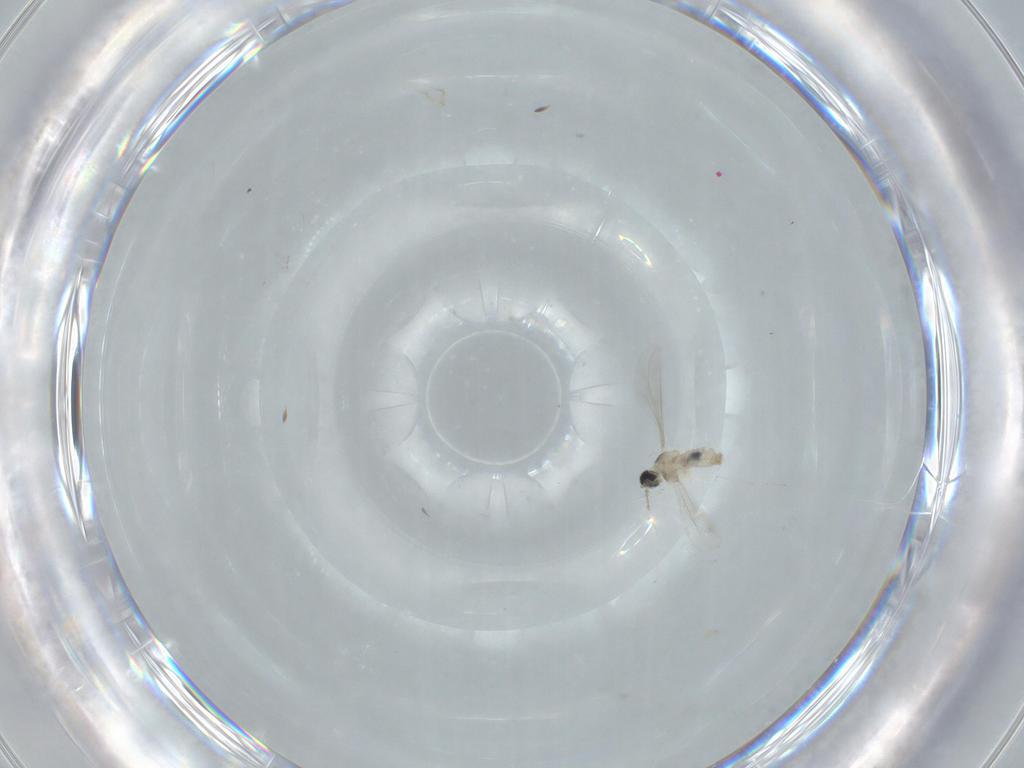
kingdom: Animalia
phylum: Arthropoda
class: Insecta
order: Diptera
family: Cecidomyiidae
